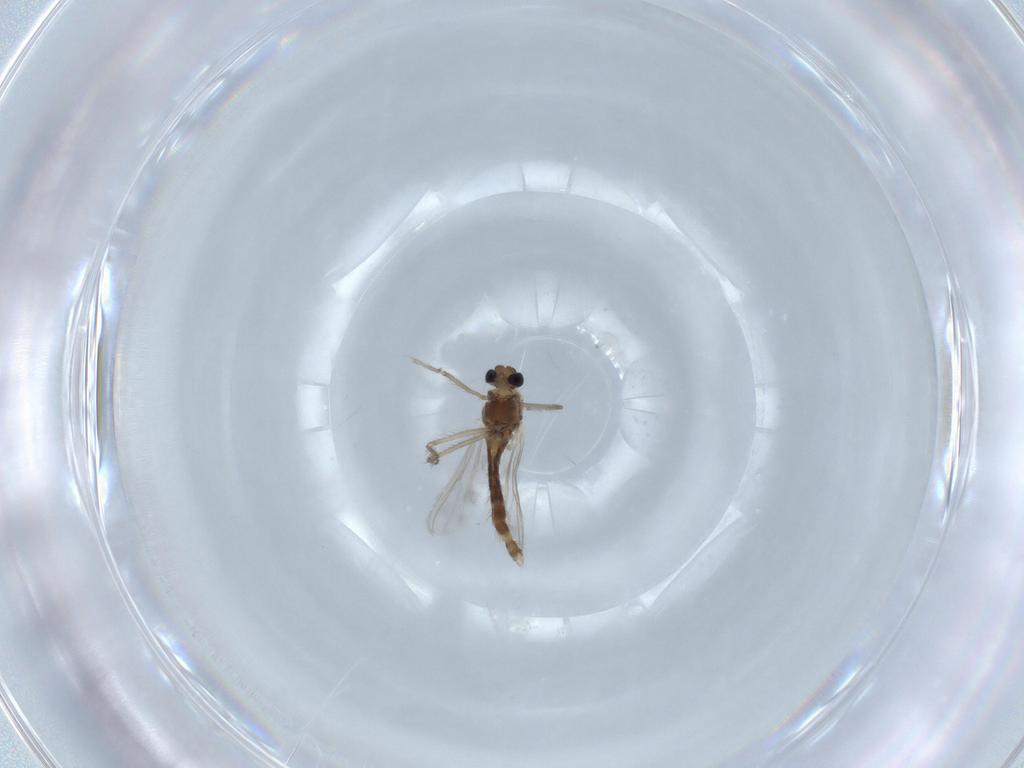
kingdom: Animalia
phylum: Arthropoda
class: Insecta
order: Diptera
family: Chironomidae
